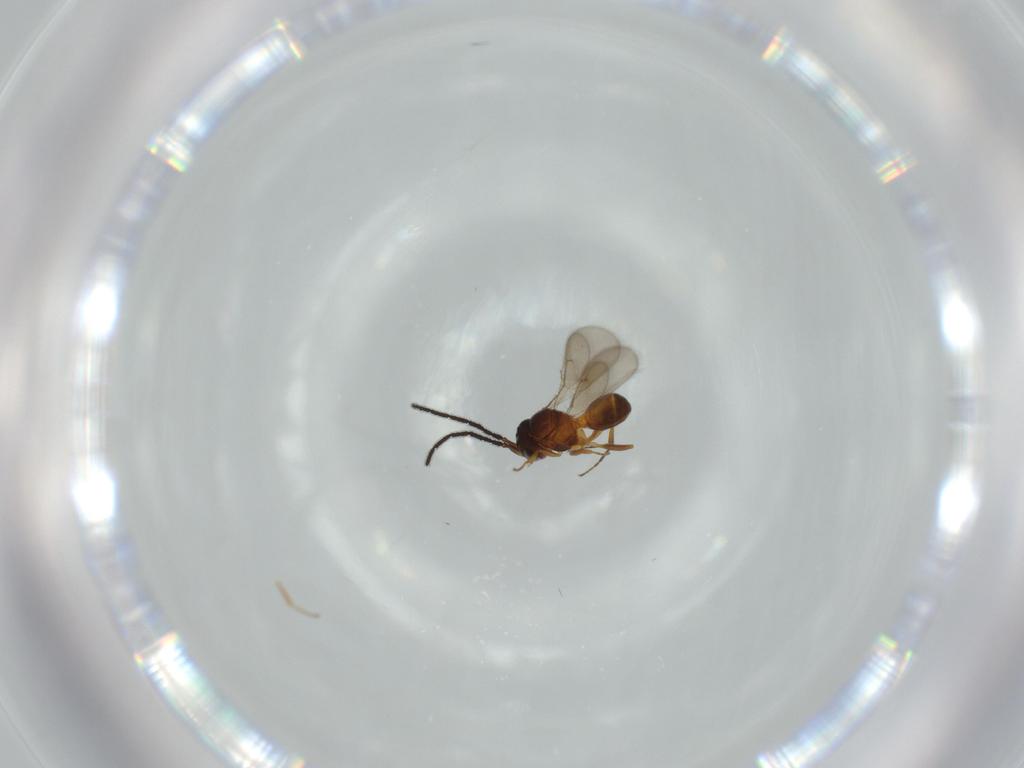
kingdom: Animalia
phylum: Arthropoda
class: Insecta
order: Hymenoptera
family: Scelionidae
